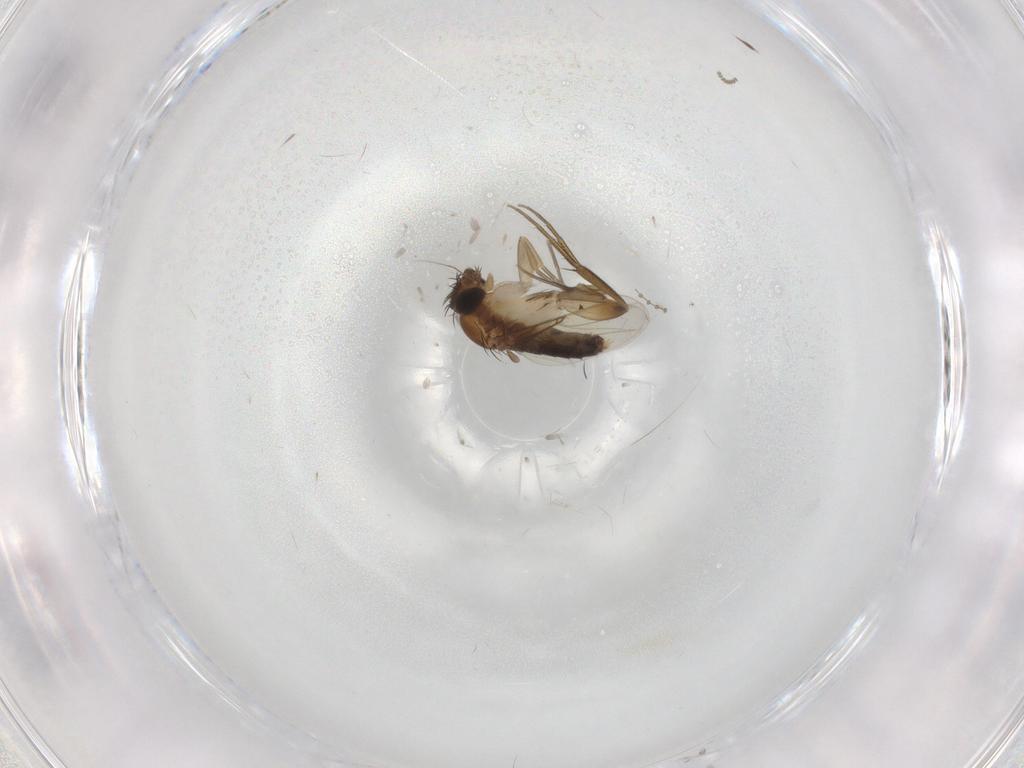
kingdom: Animalia
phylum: Arthropoda
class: Insecta
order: Diptera
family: Phoridae
